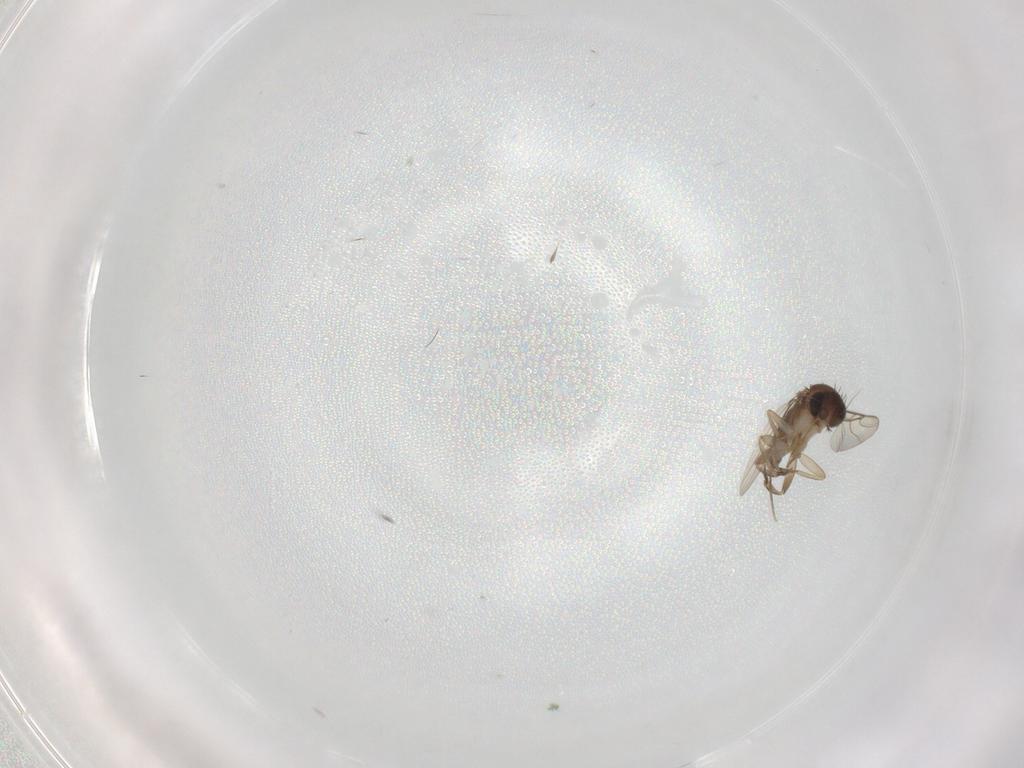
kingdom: Animalia
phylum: Arthropoda
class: Insecta
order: Diptera
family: Phoridae
